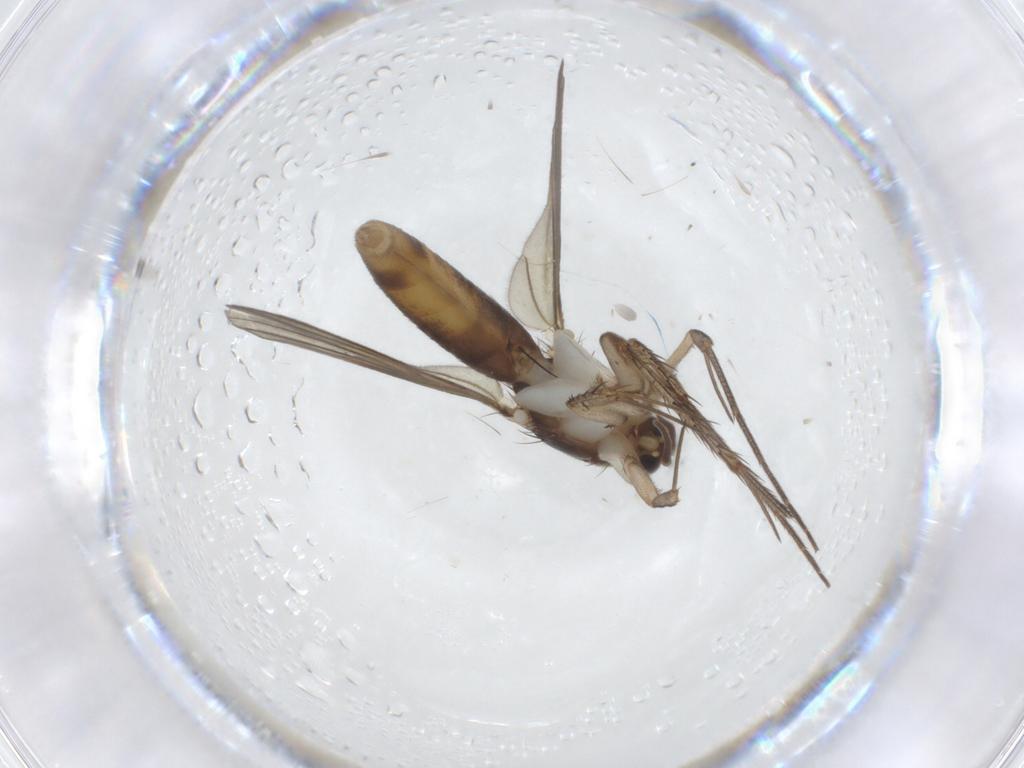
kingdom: Animalia
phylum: Arthropoda
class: Insecta
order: Diptera
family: Mycetophilidae
